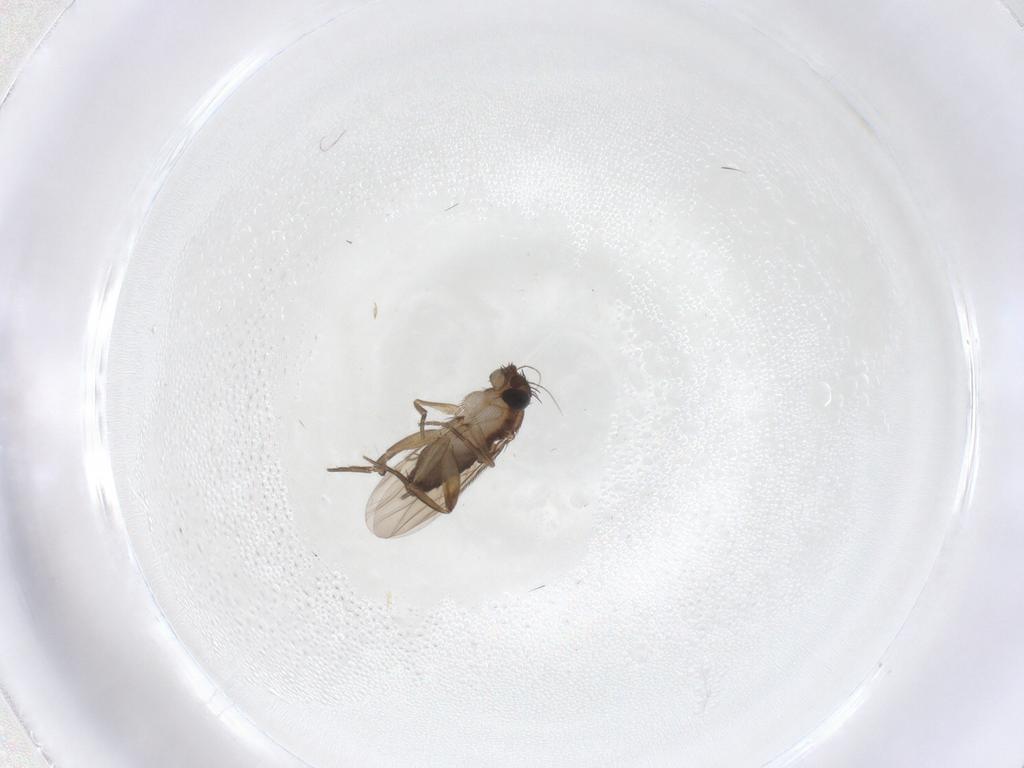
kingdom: Animalia
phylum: Arthropoda
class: Insecta
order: Diptera
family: Phoridae
